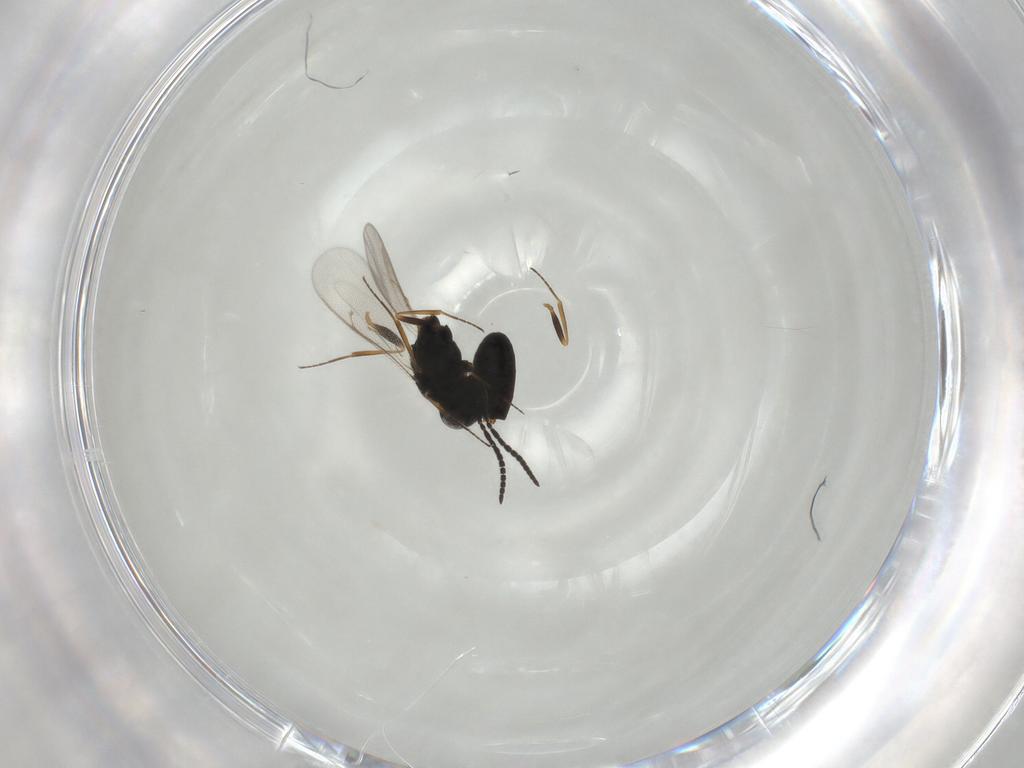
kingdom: Animalia
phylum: Arthropoda
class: Insecta
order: Hymenoptera
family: Scelionidae
